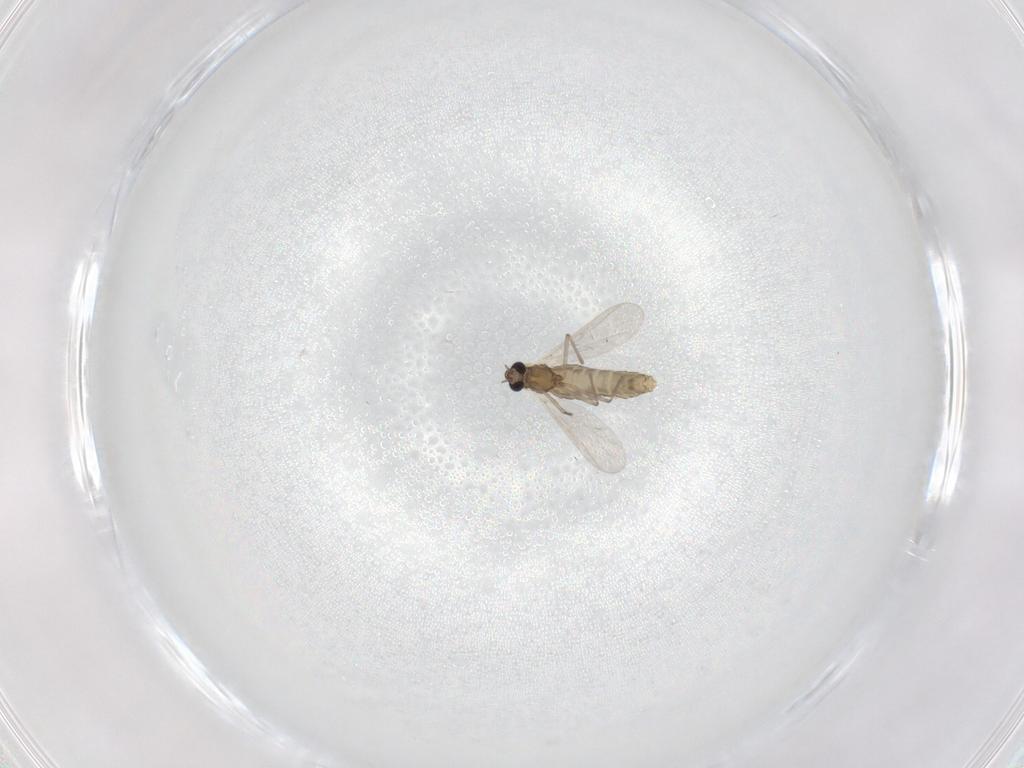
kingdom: Animalia
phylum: Arthropoda
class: Insecta
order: Diptera
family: Chironomidae
